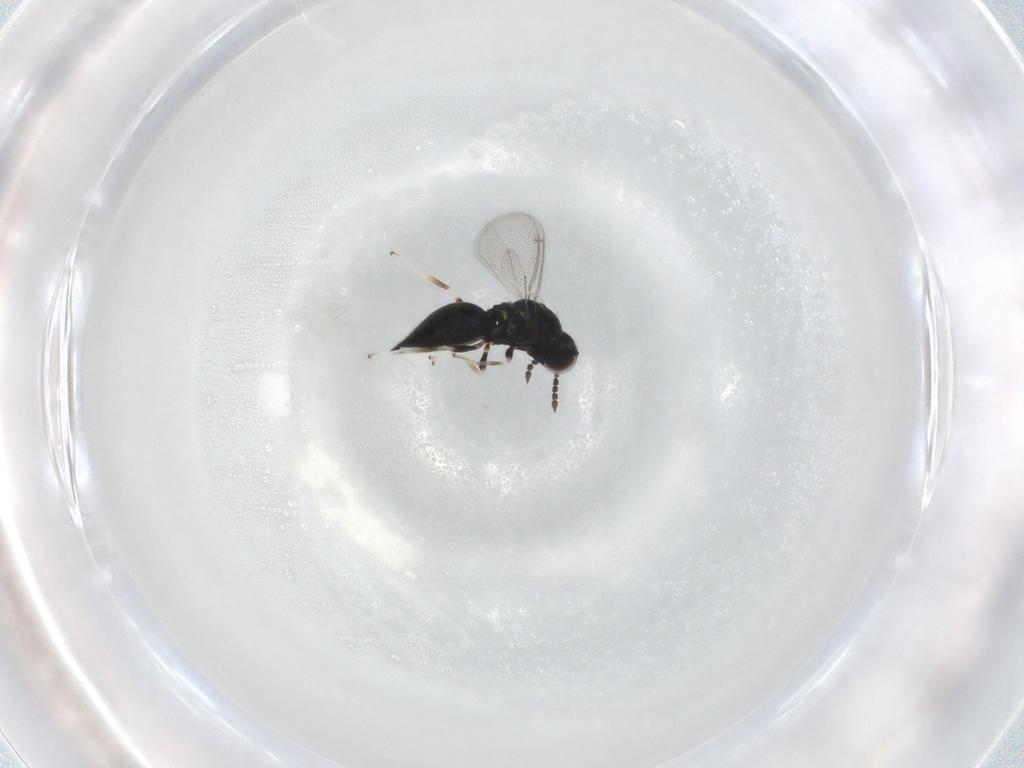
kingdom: Animalia
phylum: Arthropoda
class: Insecta
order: Hymenoptera
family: Eulophidae
